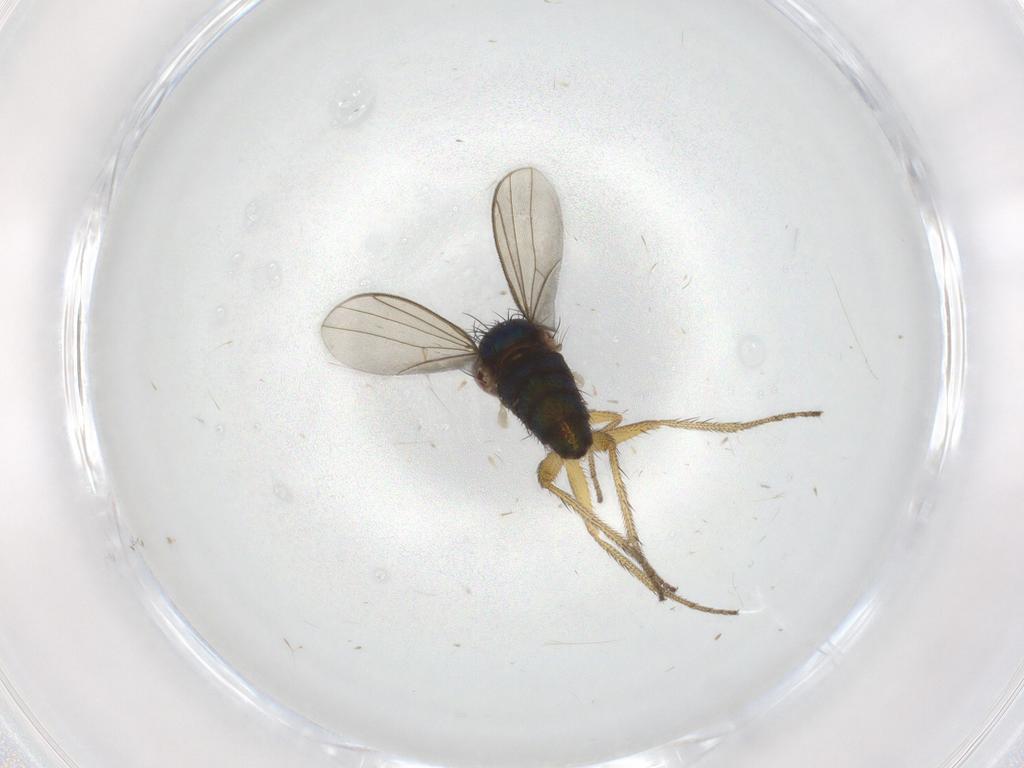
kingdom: Animalia
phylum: Arthropoda
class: Insecta
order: Diptera
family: Dolichopodidae
